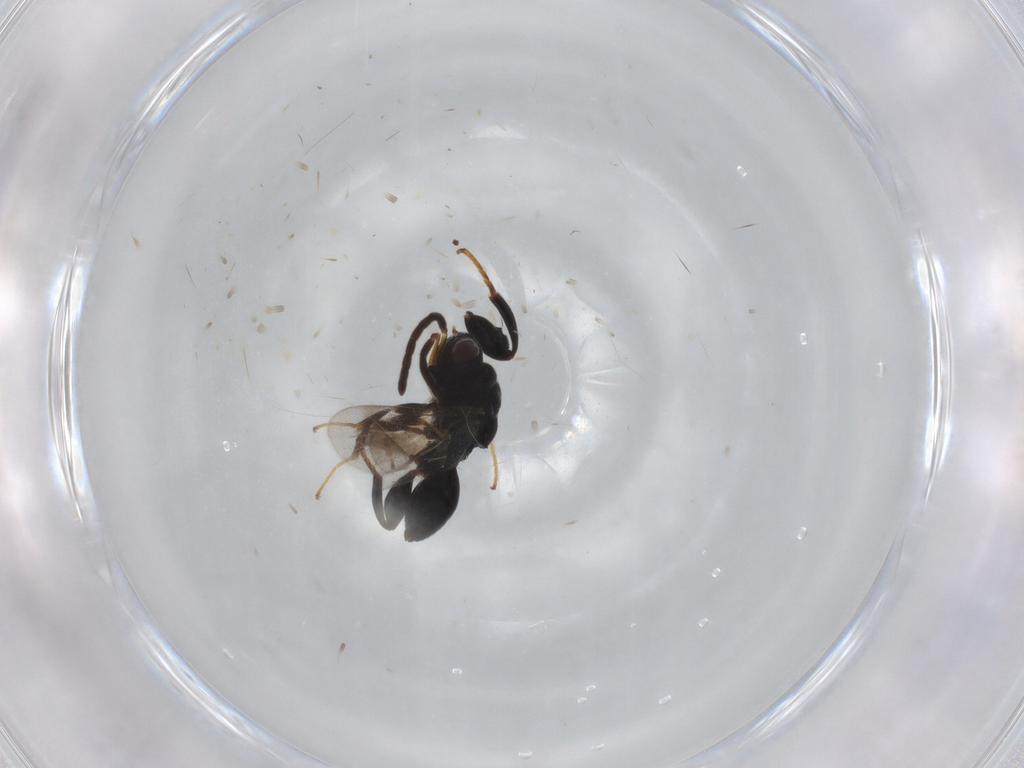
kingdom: Animalia
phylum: Arthropoda
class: Insecta
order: Hymenoptera
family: Chalcididae
